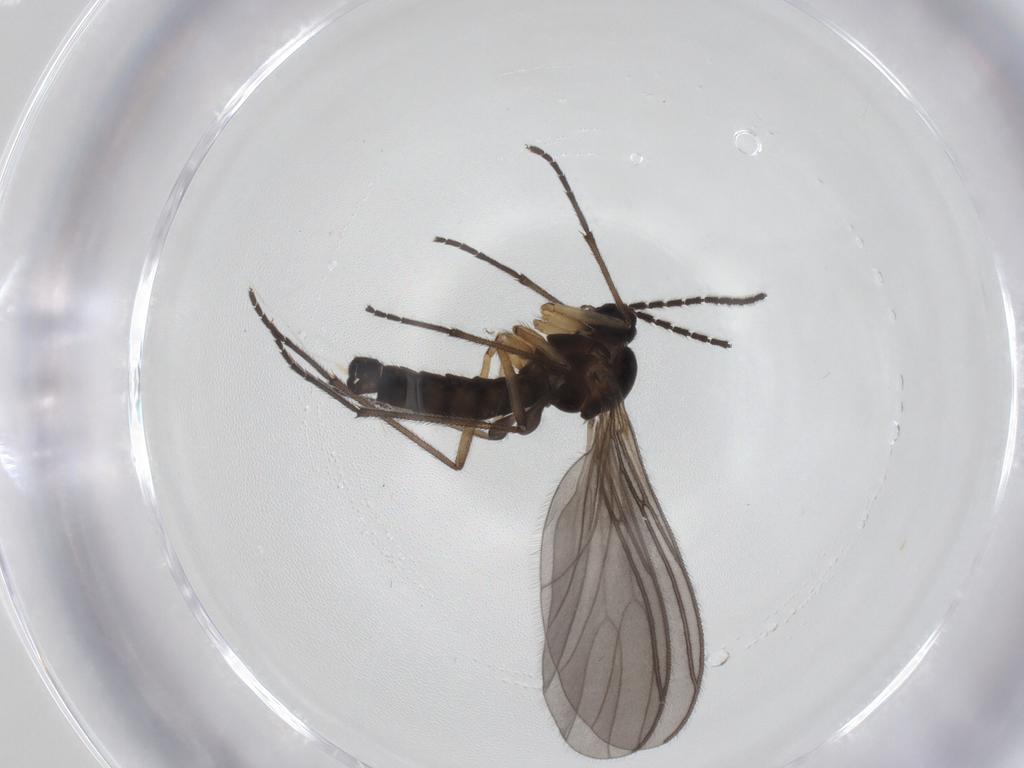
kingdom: Animalia
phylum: Arthropoda
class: Insecta
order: Diptera
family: Sciaridae
